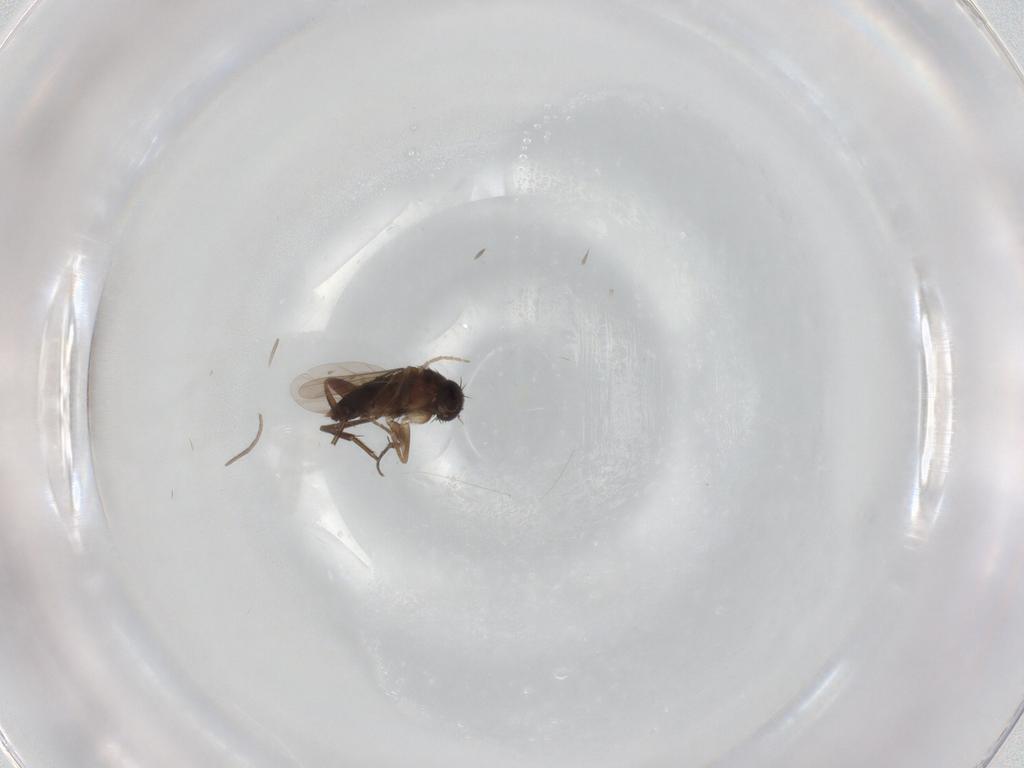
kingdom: Animalia
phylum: Arthropoda
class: Insecta
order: Diptera
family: Phoridae
